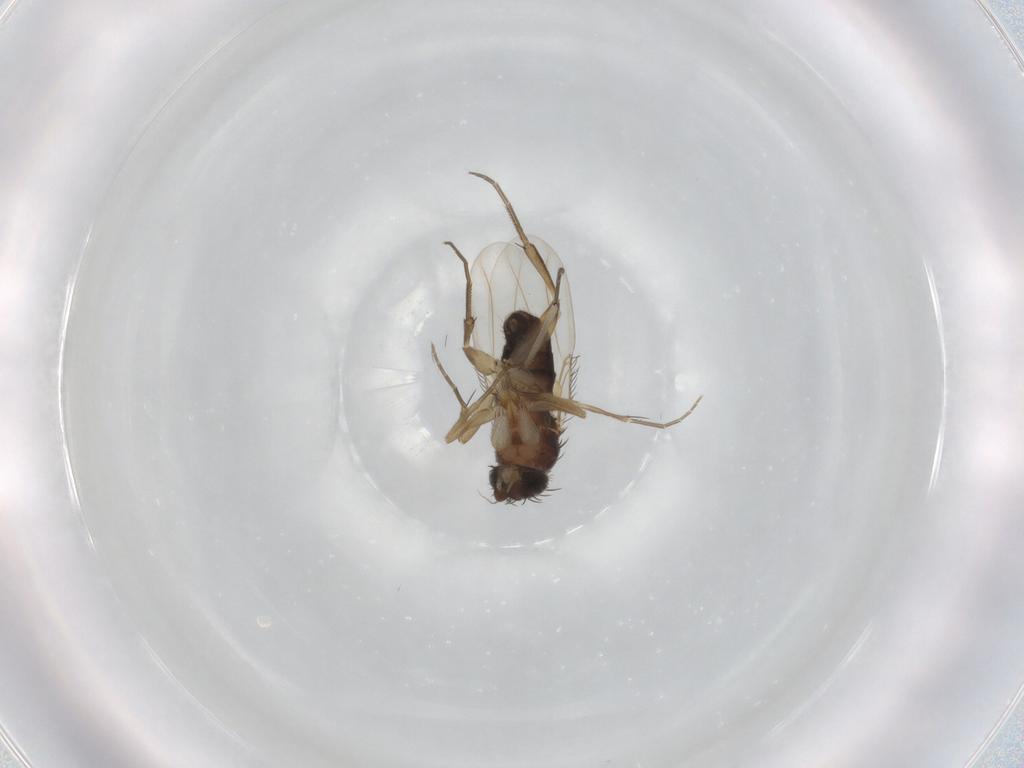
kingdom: Animalia
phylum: Arthropoda
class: Insecta
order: Diptera
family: Phoridae
